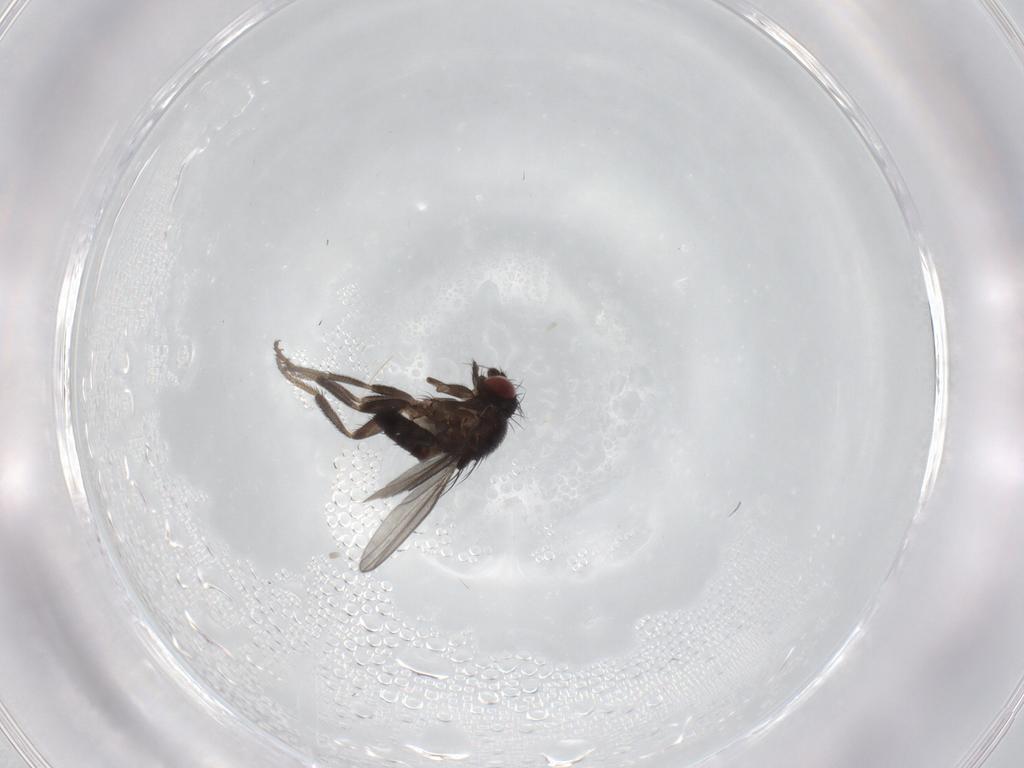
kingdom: Animalia
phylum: Arthropoda
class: Insecta
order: Diptera
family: Milichiidae
